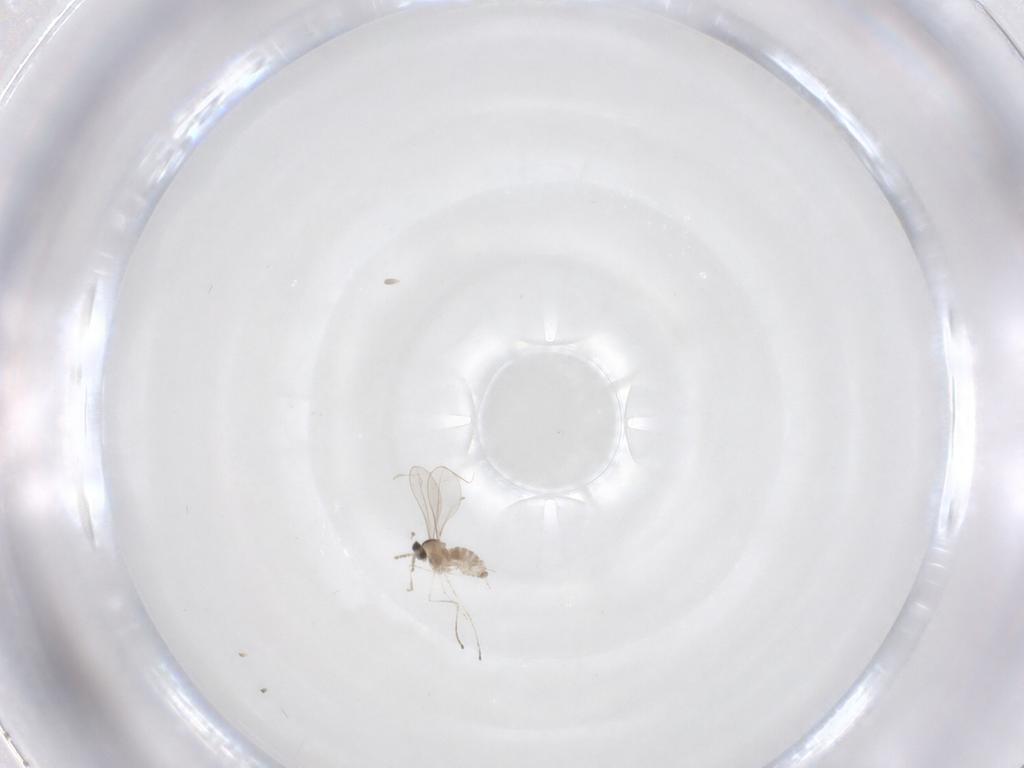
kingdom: Animalia
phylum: Arthropoda
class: Insecta
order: Diptera
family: Cecidomyiidae
